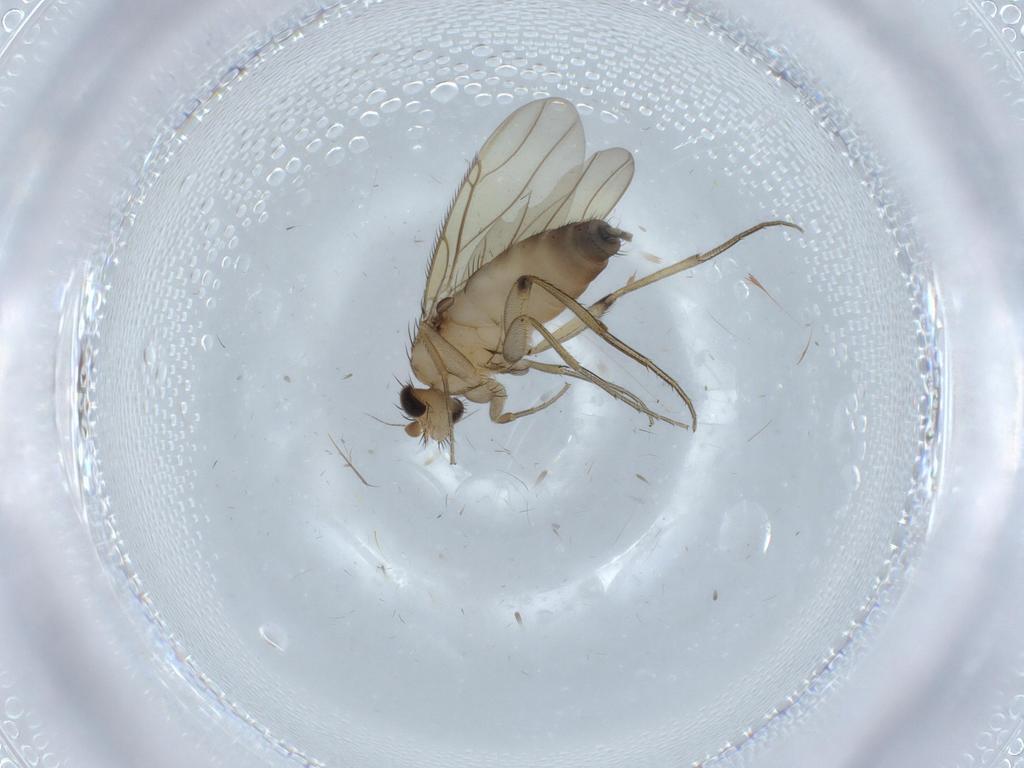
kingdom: Animalia
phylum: Arthropoda
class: Insecta
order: Diptera
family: Phoridae
